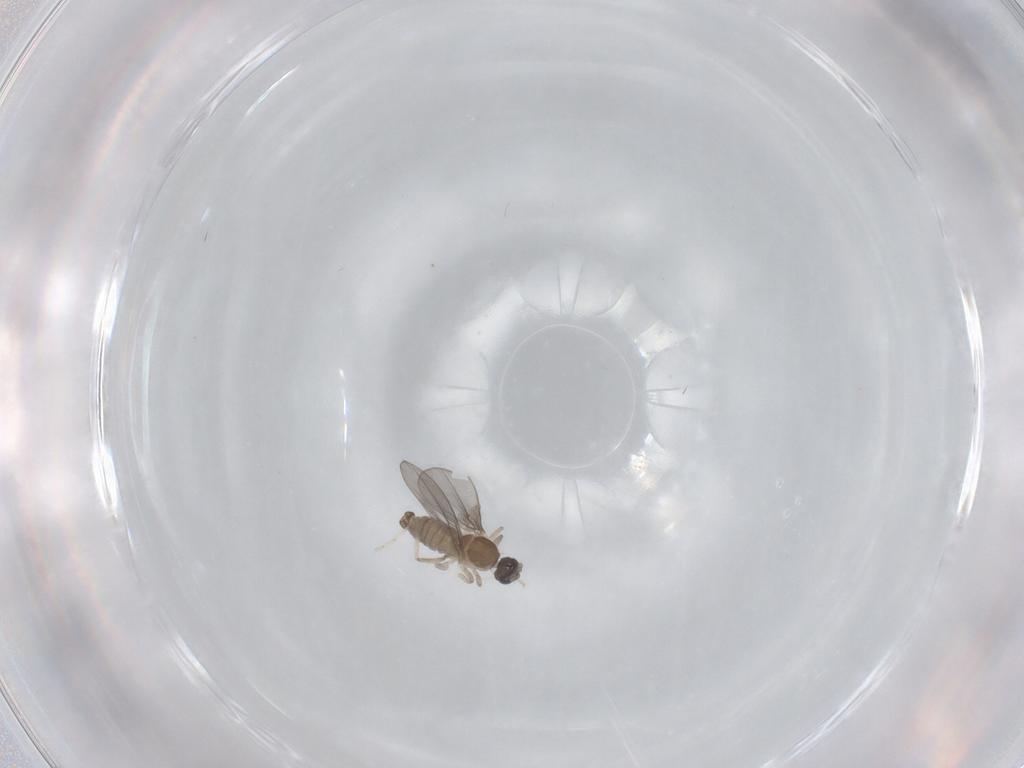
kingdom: Animalia
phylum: Arthropoda
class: Insecta
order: Diptera
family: Cecidomyiidae
